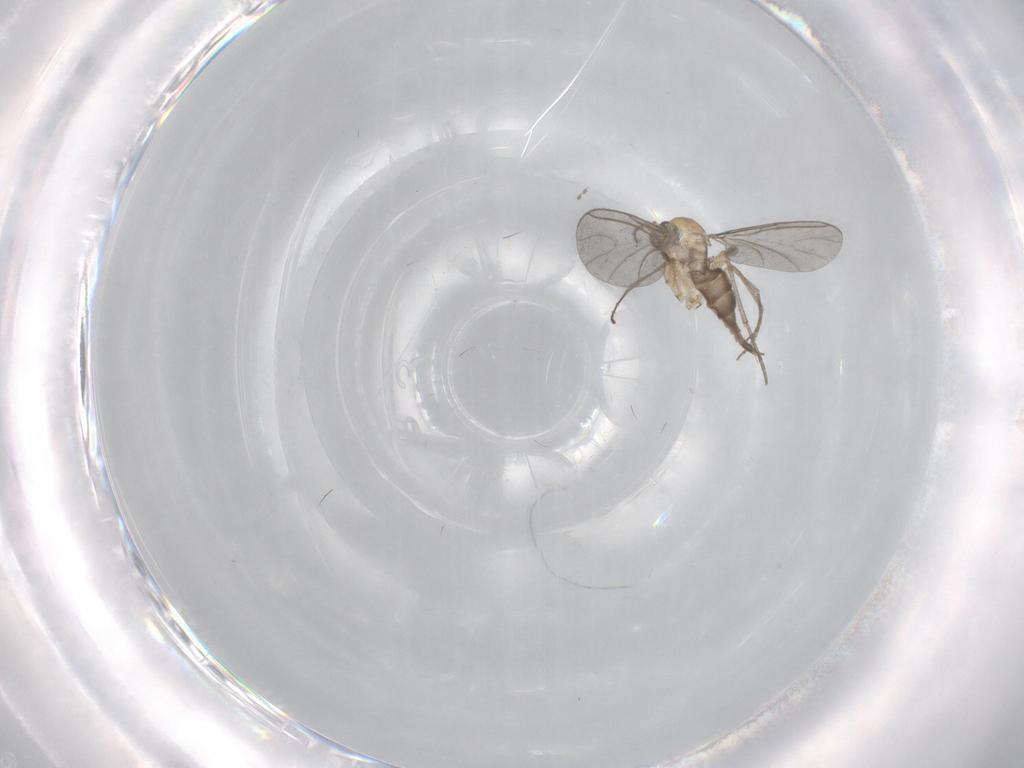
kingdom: Animalia
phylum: Arthropoda
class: Insecta
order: Diptera
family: Sciaridae
